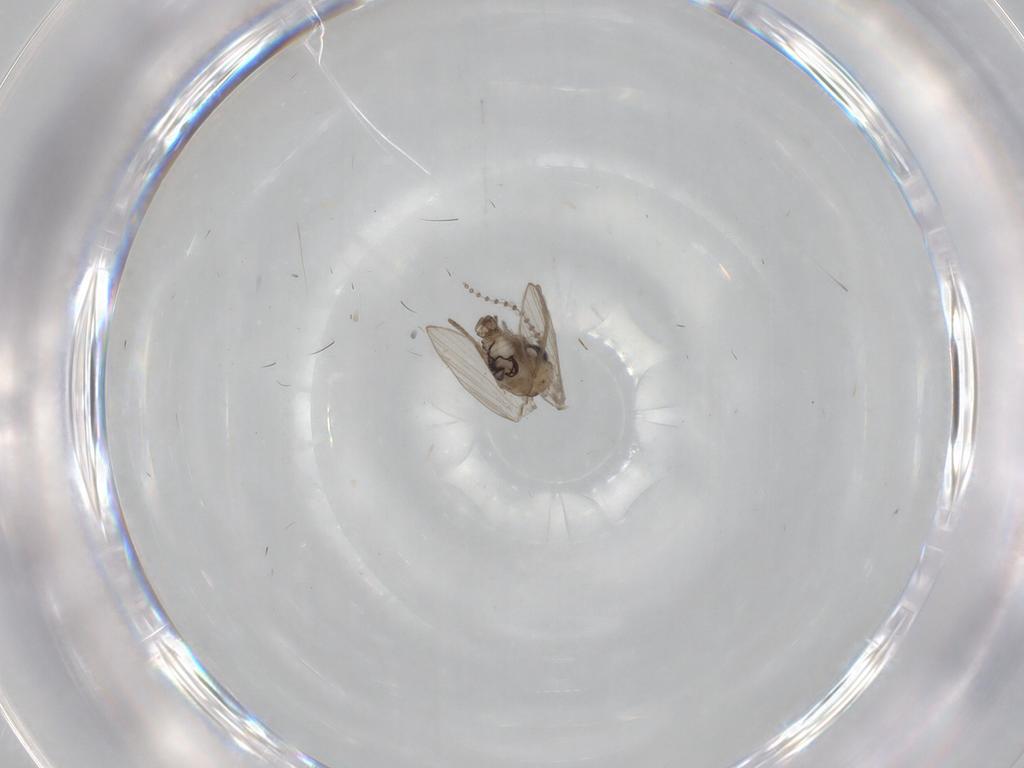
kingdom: Animalia
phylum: Arthropoda
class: Insecta
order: Diptera
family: Psychodidae
